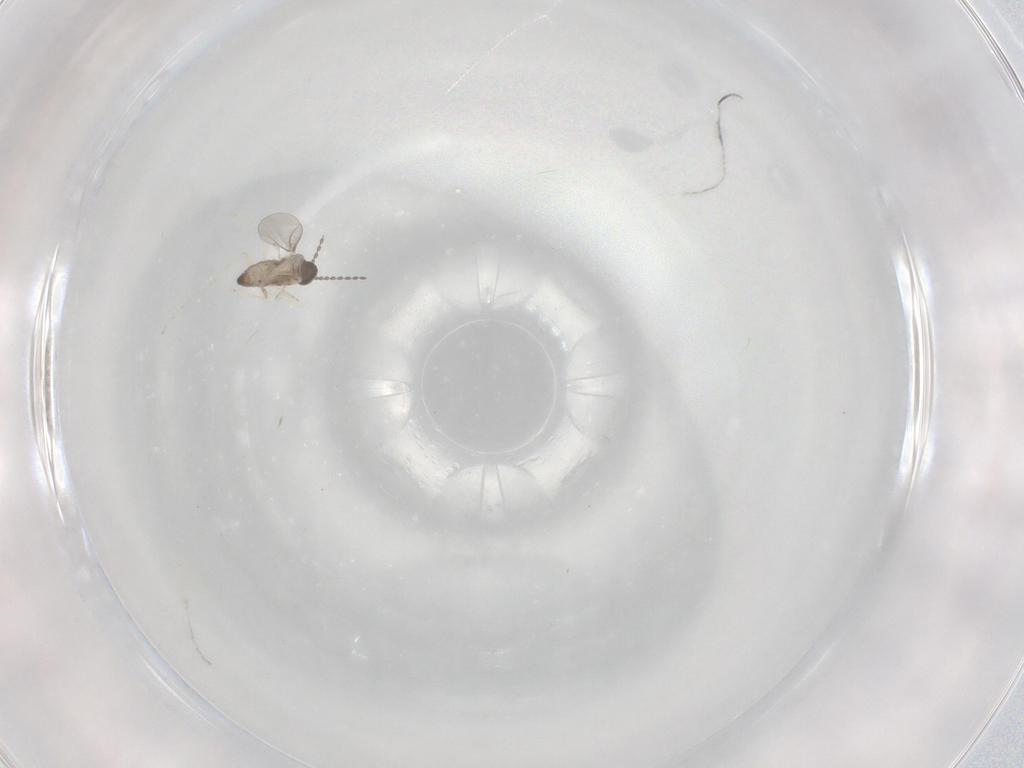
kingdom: Animalia
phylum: Arthropoda
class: Insecta
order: Diptera
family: Cecidomyiidae
